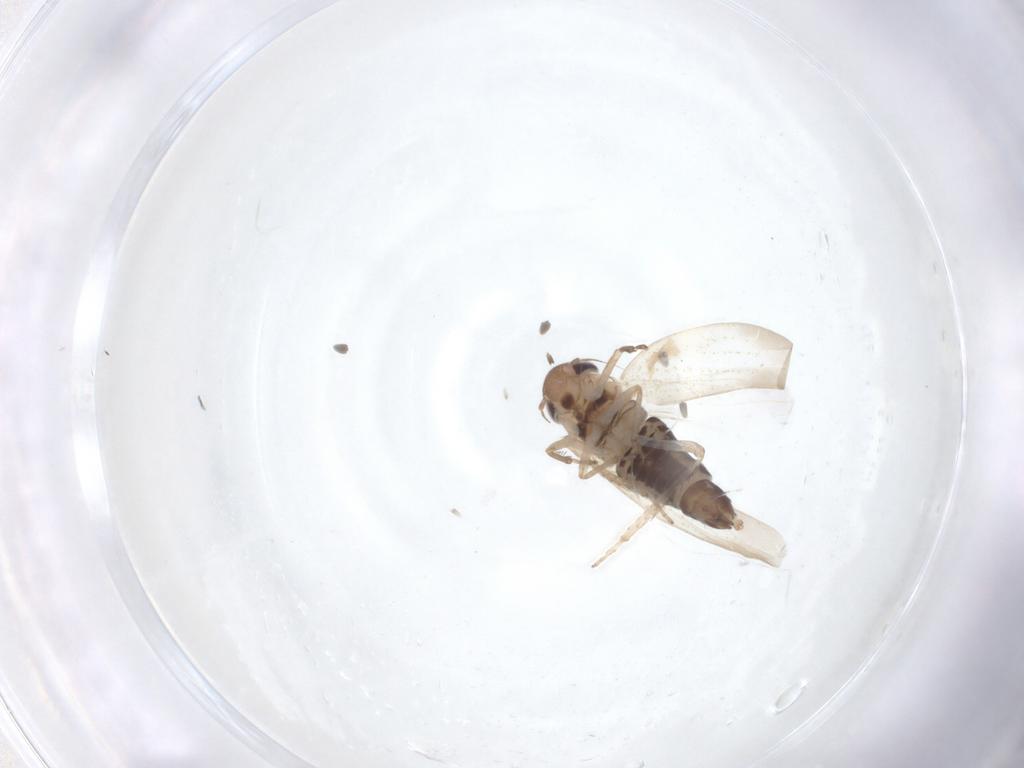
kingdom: Animalia
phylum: Arthropoda
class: Insecta
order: Hemiptera
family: Cicadellidae
